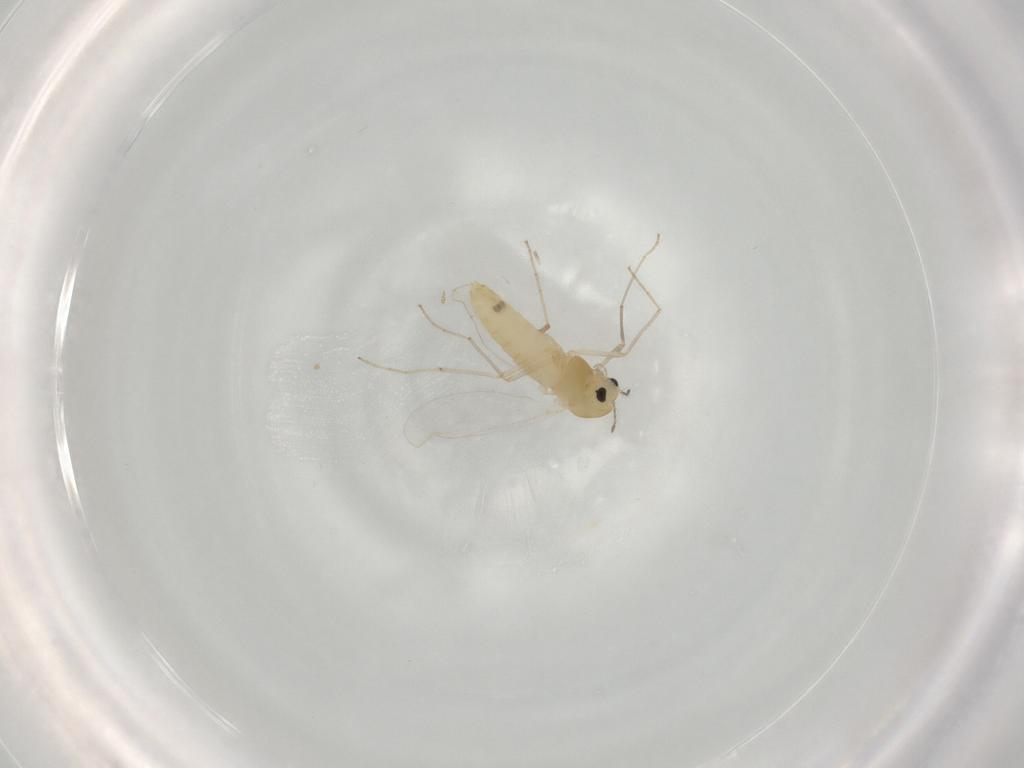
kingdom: Animalia
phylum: Arthropoda
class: Insecta
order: Diptera
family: Chironomidae
